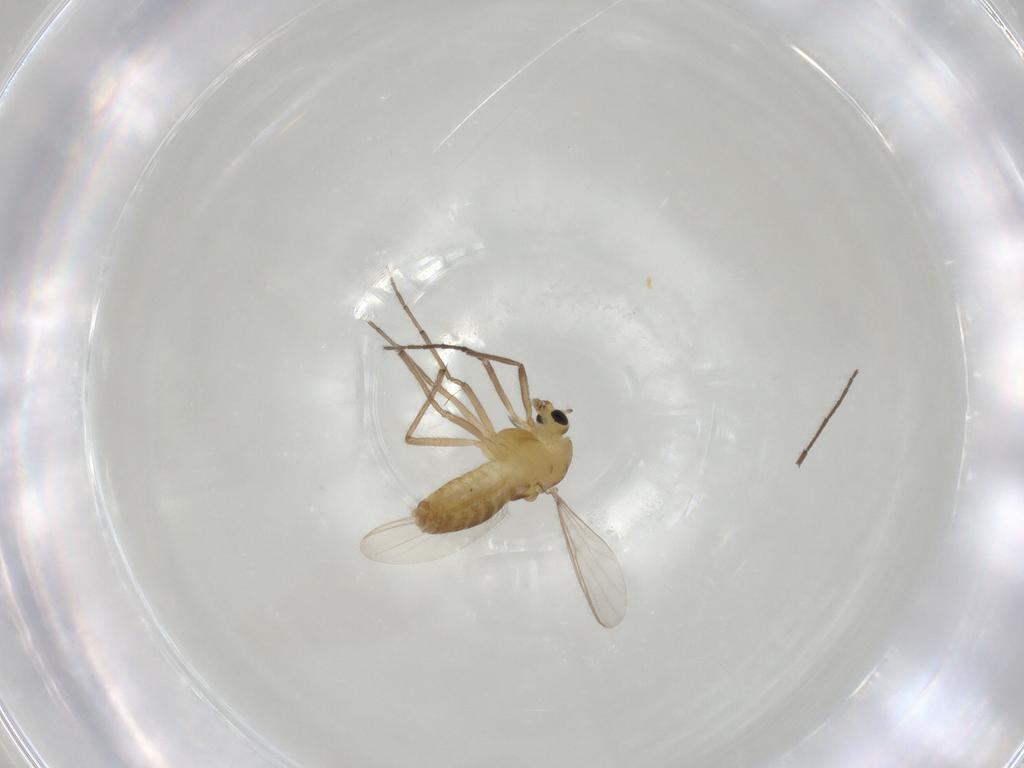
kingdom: Animalia
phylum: Arthropoda
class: Insecta
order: Diptera
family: Chironomidae
